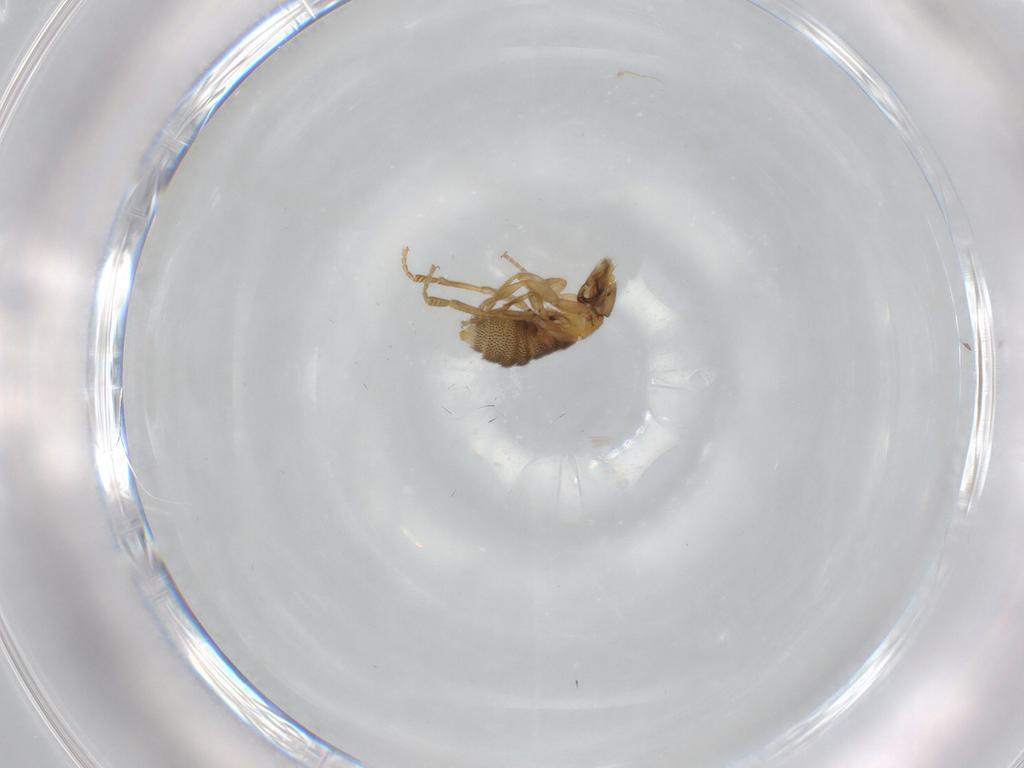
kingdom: Animalia
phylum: Arthropoda
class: Insecta
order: Diptera
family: Phoridae
